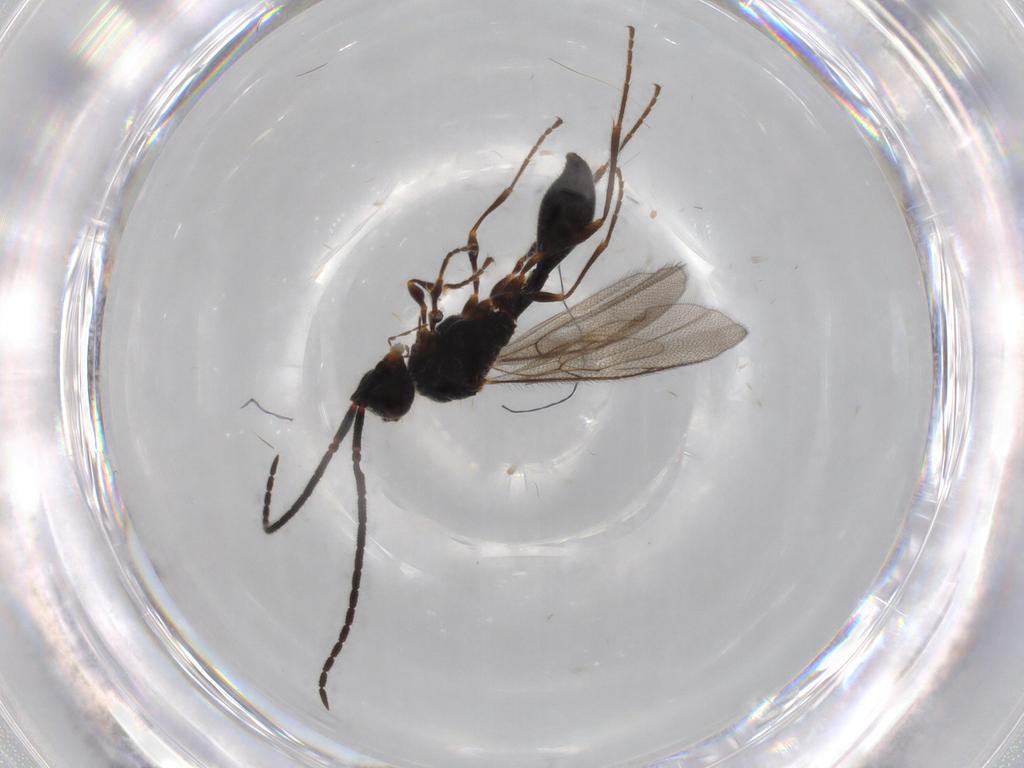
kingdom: Animalia
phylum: Arthropoda
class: Insecta
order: Hymenoptera
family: Diapriidae
